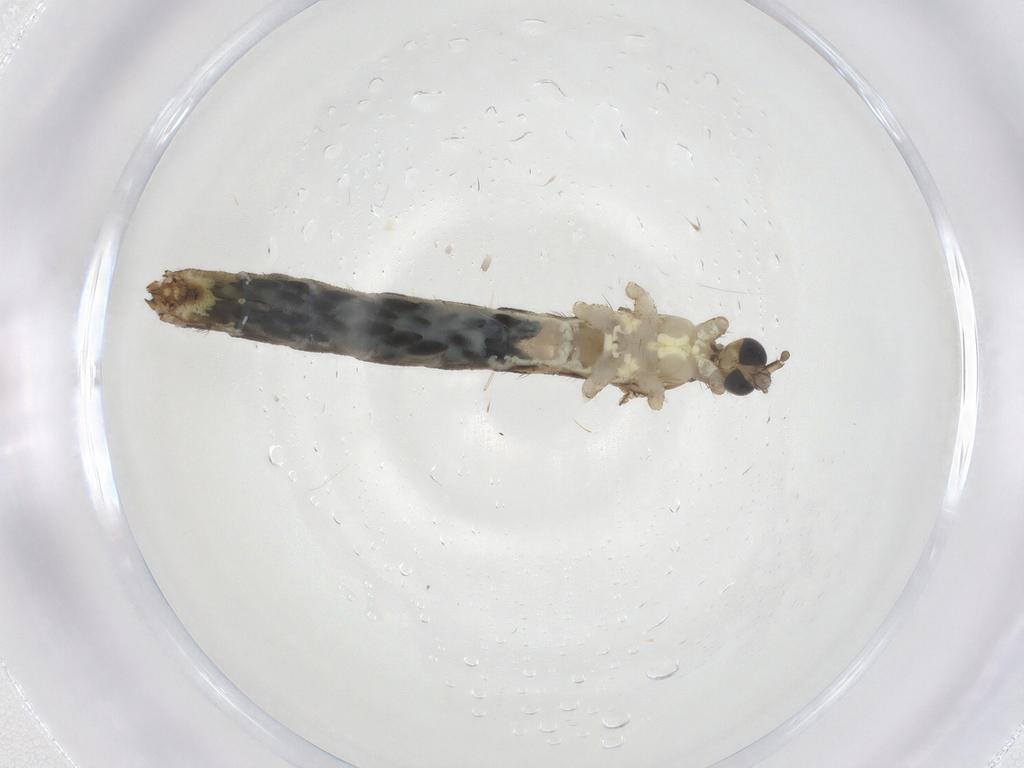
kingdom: Animalia
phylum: Arthropoda
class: Insecta
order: Diptera
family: Limoniidae
